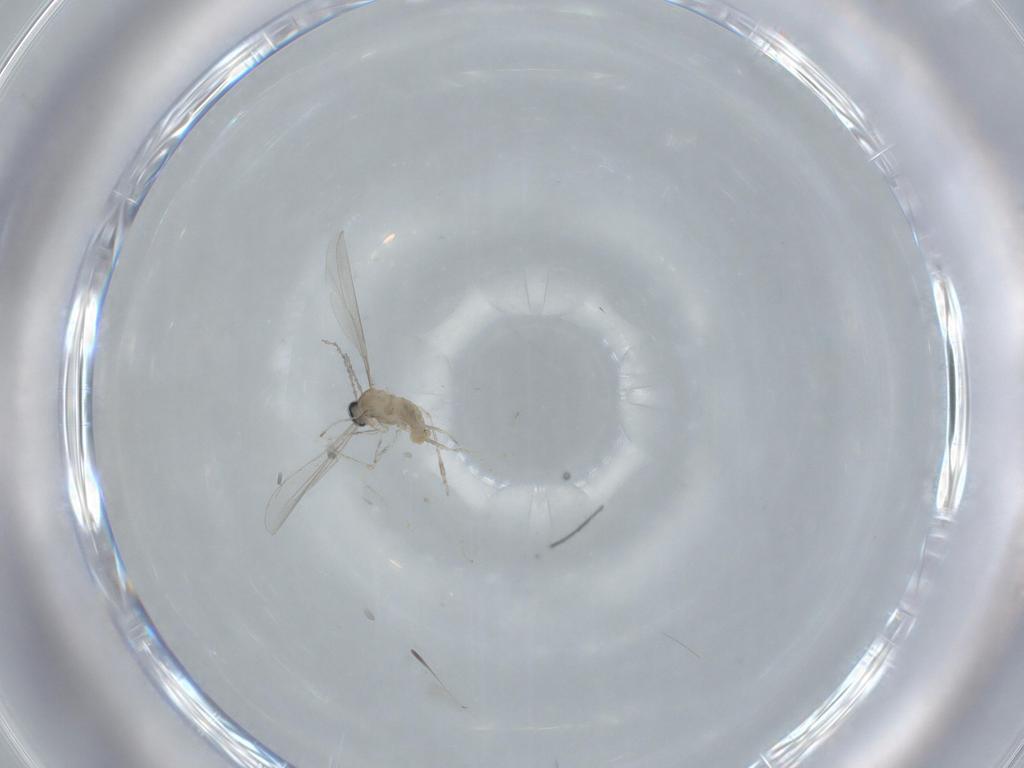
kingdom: Animalia
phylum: Arthropoda
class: Insecta
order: Diptera
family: Cecidomyiidae
